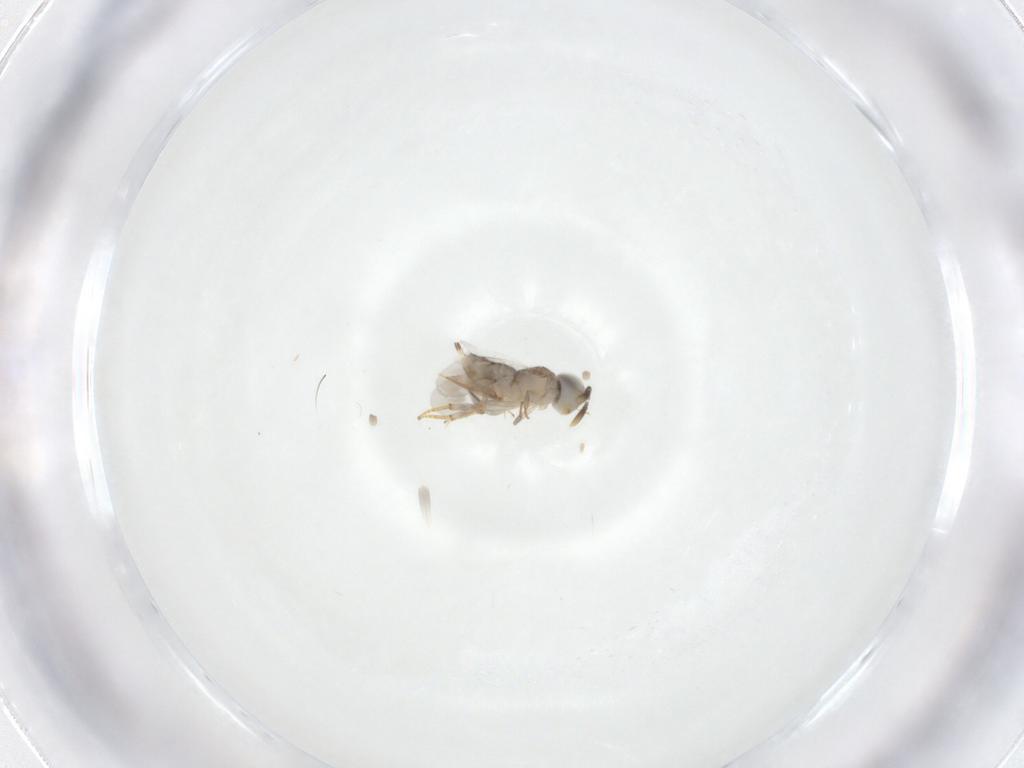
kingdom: Animalia
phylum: Arthropoda
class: Insecta
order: Hymenoptera
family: Encyrtidae
